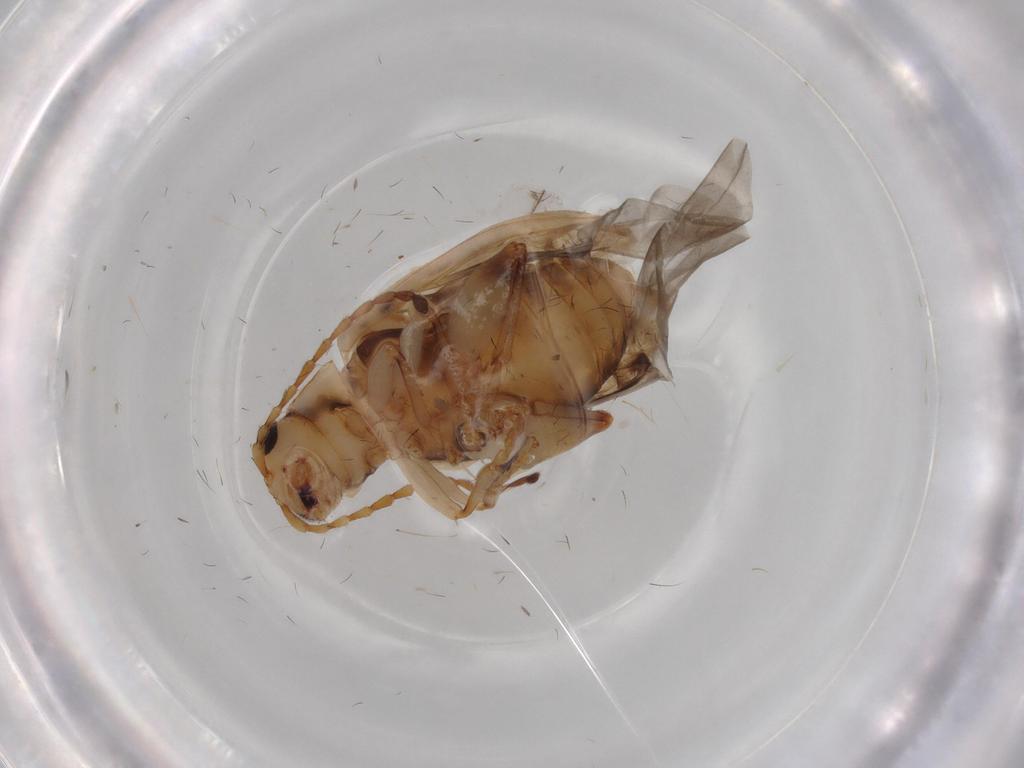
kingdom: Animalia
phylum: Arthropoda
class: Insecta
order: Coleoptera
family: Chrysomelidae
